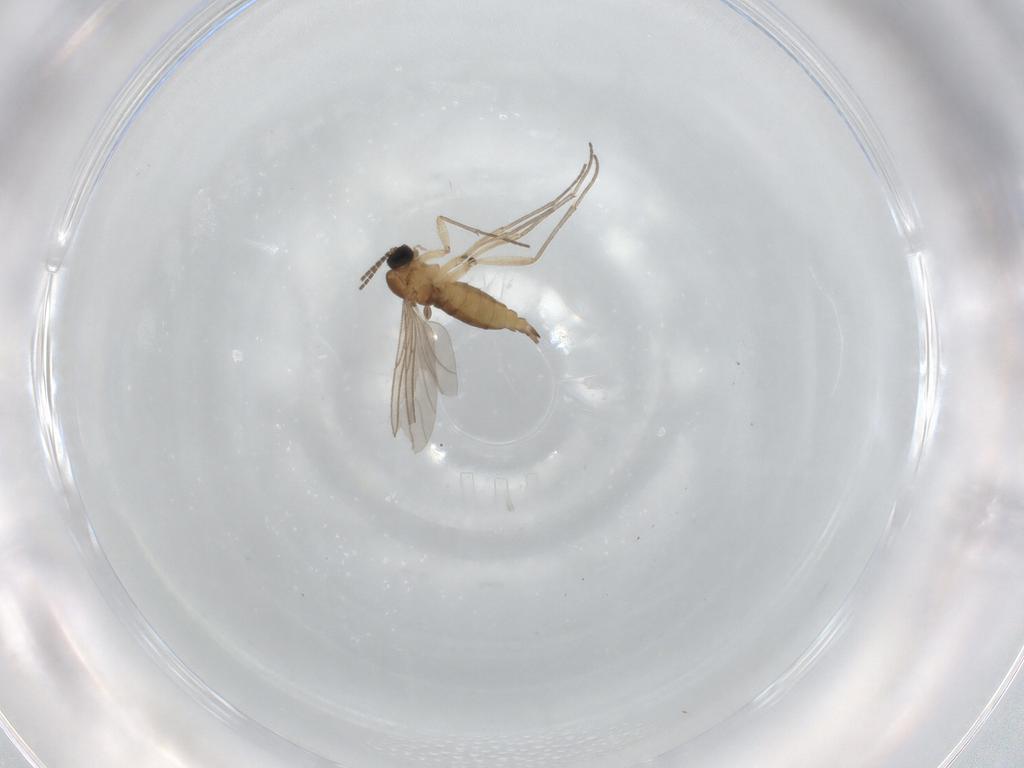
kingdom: Animalia
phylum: Arthropoda
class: Insecta
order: Diptera
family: Sciaridae
